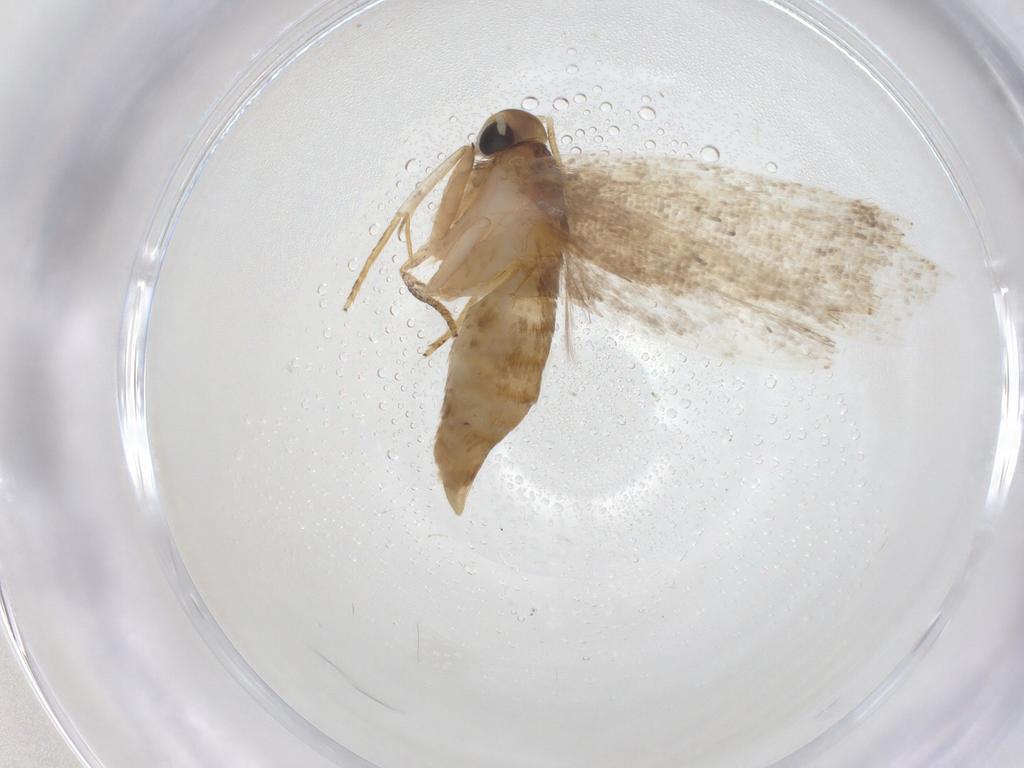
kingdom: Animalia
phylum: Arthropoda
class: Insecta
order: Lepidoptera
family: Oecophoridae
